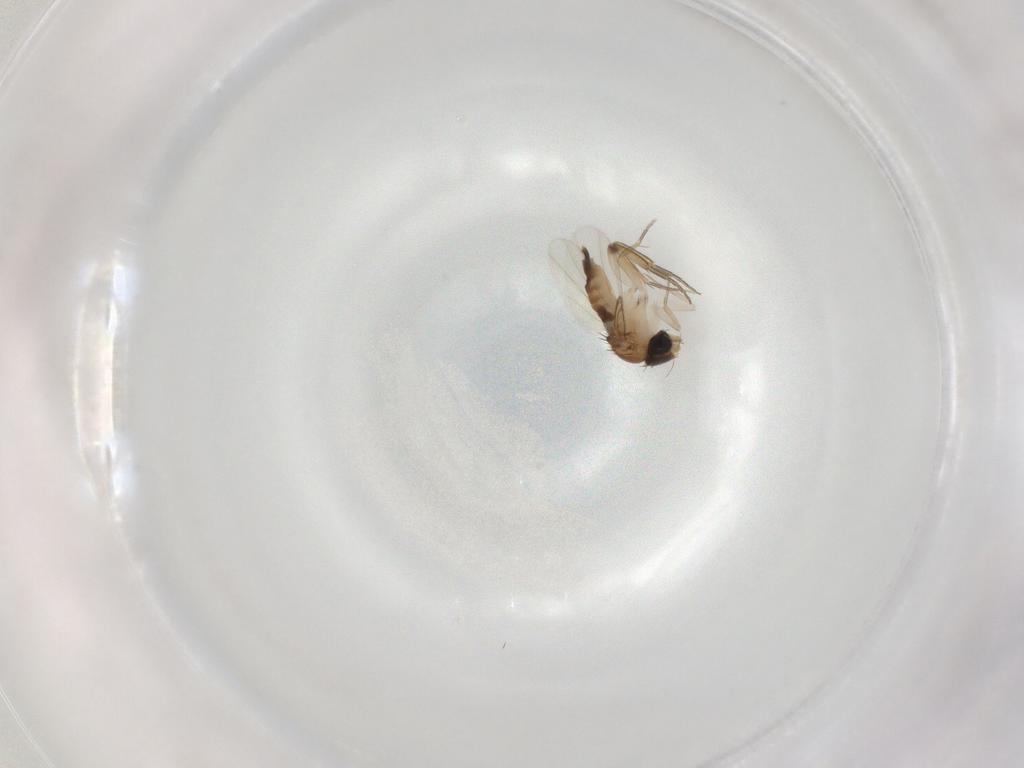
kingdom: Animalia
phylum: Arthropoda
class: Insecta
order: Diptera
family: Phoridae
